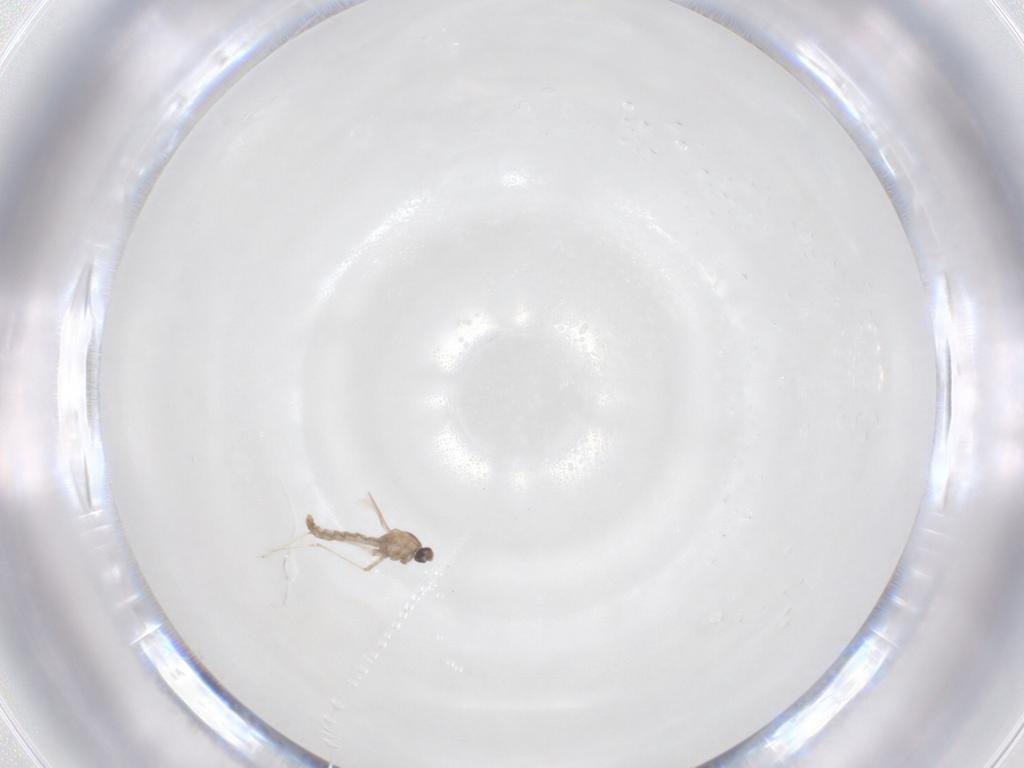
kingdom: Animalia
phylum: Arthropoda
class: Insecta
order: Diptera
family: Cecidomyiidae
